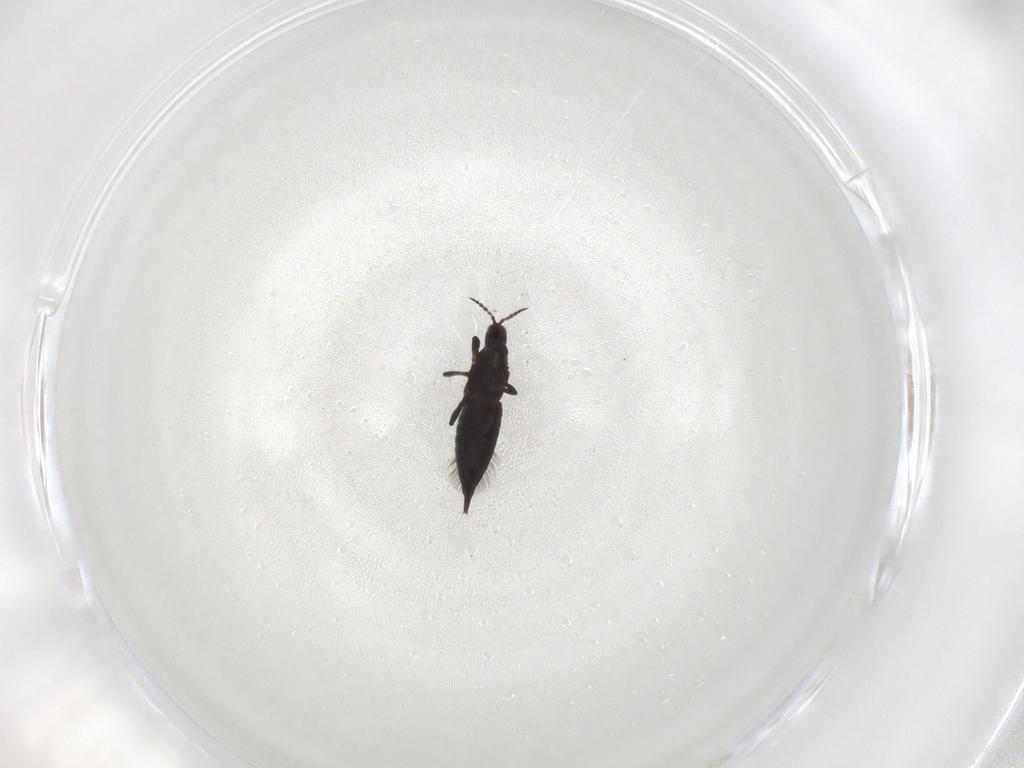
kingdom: Animalia
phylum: Arthropoda
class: Insecta
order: Thysanoptera
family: Phlaeothripidae
